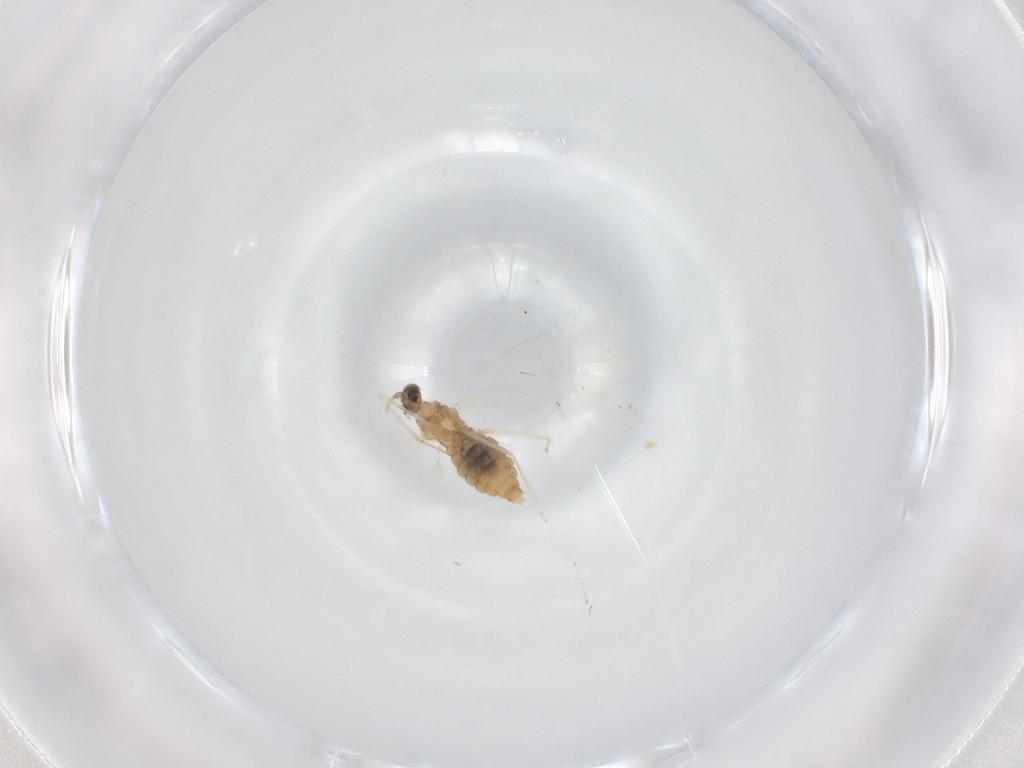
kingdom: Animalia
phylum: Arthropoda
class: Insecta
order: Diptera
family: Cecidomyiidae
